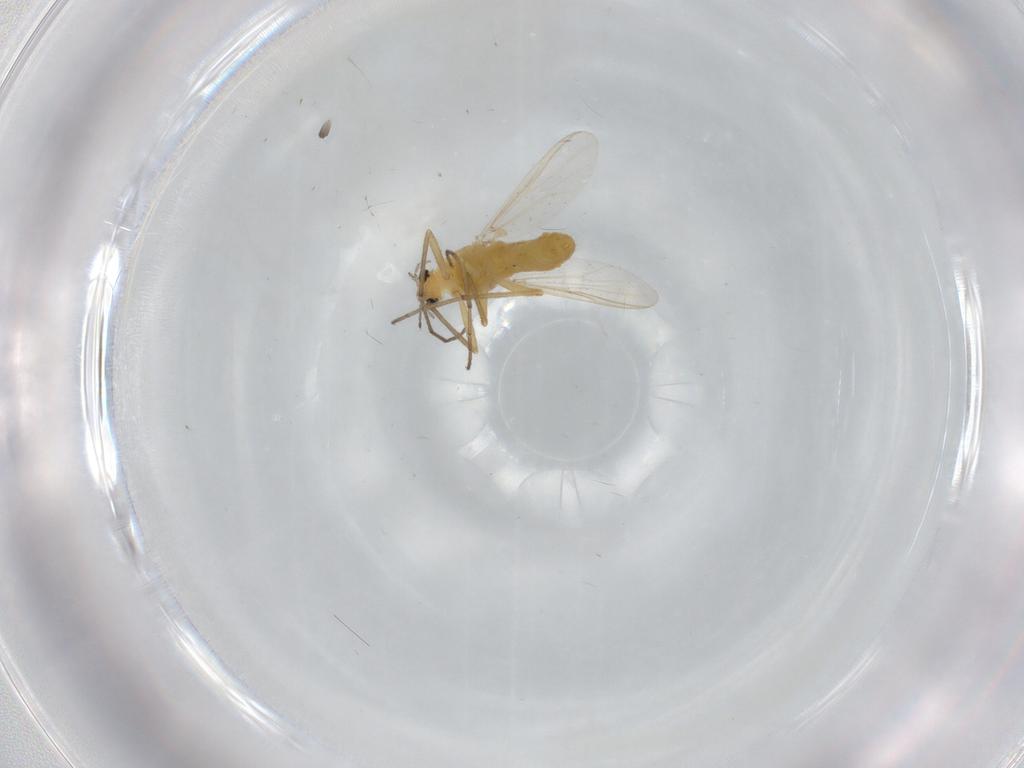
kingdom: Animalia
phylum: Arthropoda
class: Insecta
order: Diptera
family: Chironomidae
